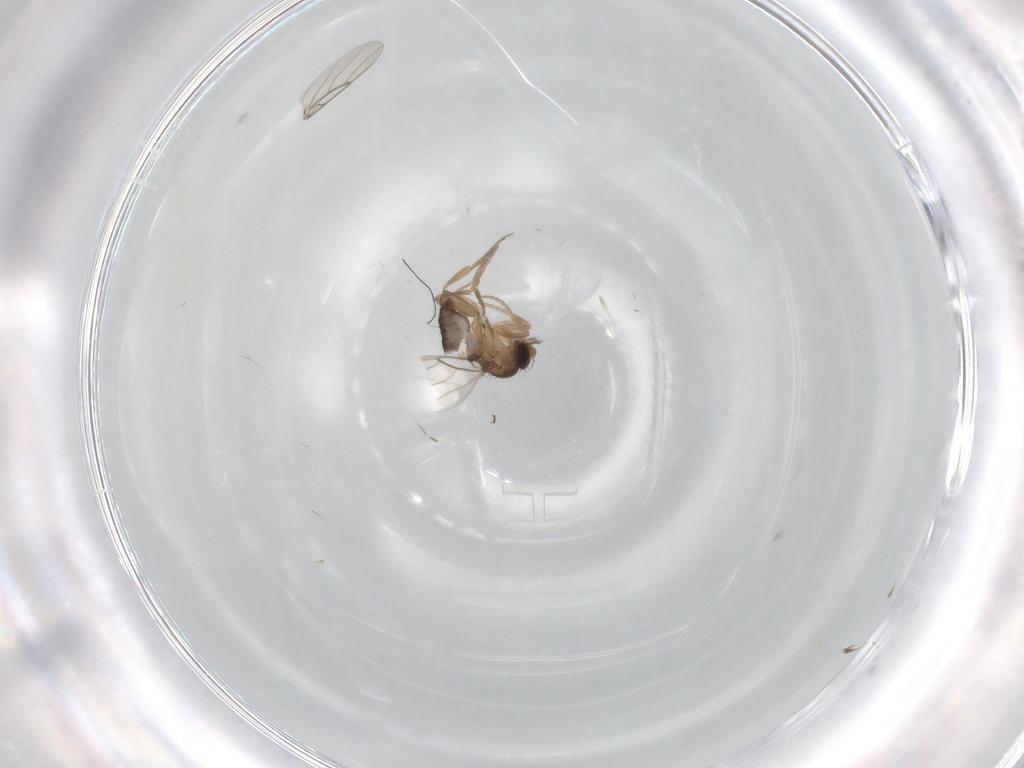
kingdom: Animalia
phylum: Arthropoda
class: Insecta
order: Diptera
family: Phoridae
